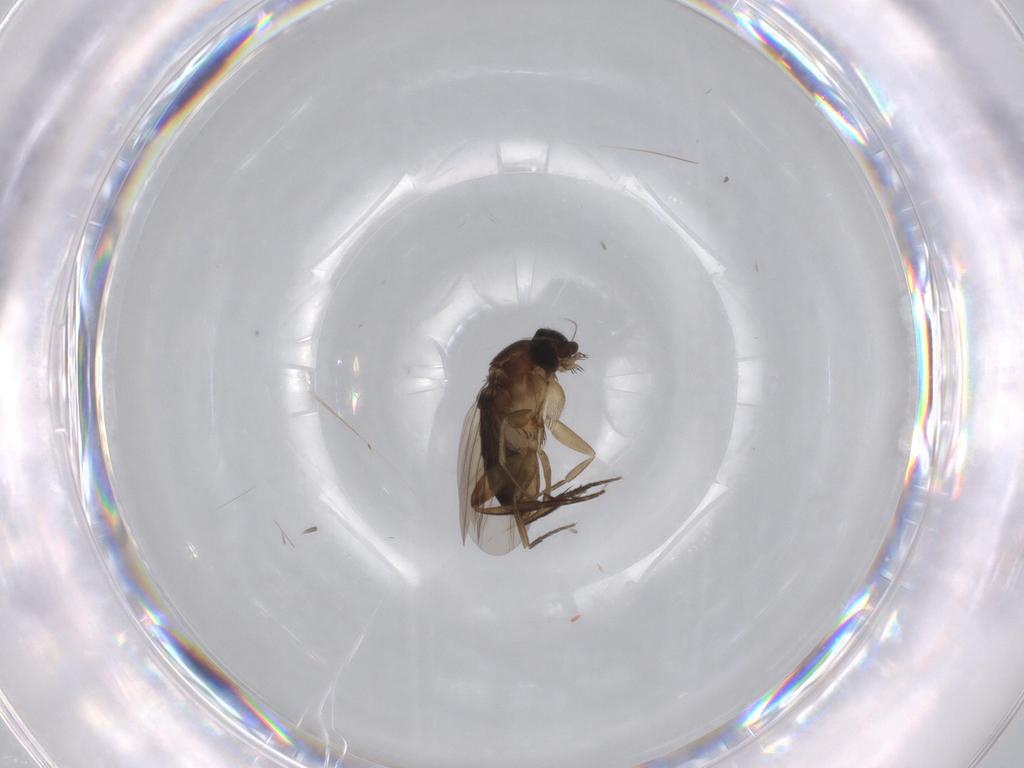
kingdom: Animalia
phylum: Arthropoda
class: Insecta
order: Diptera
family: Phoridae
